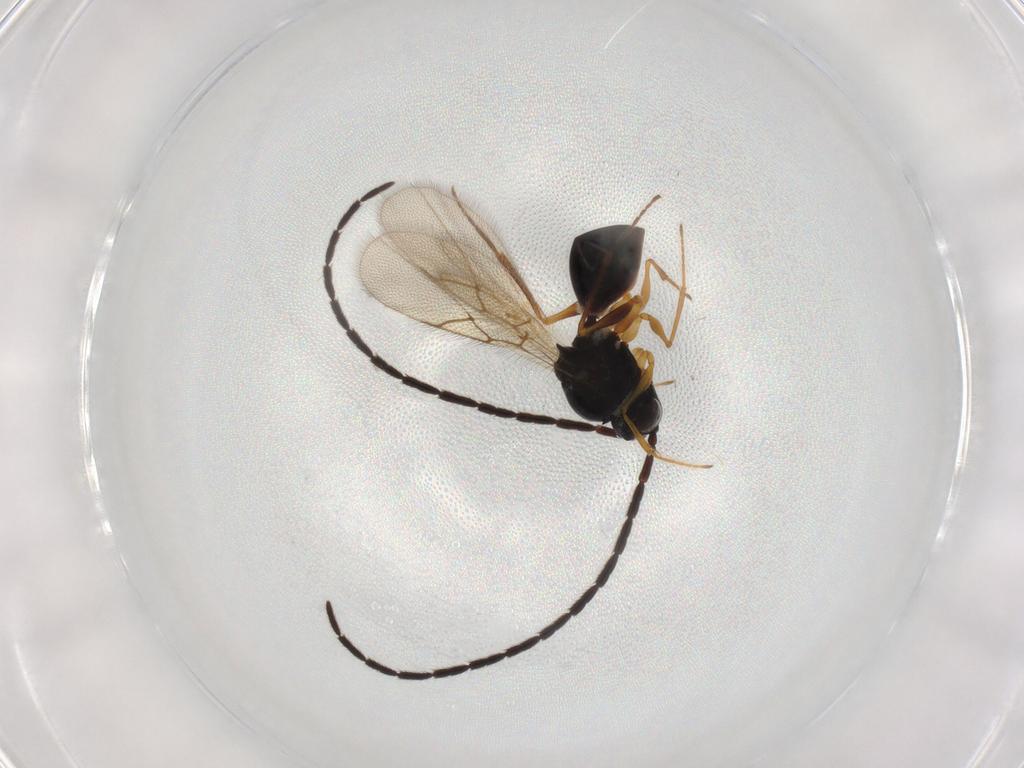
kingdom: Animalia
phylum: Arthropoda
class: Insecta
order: Hymenoptera
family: Figitidae
